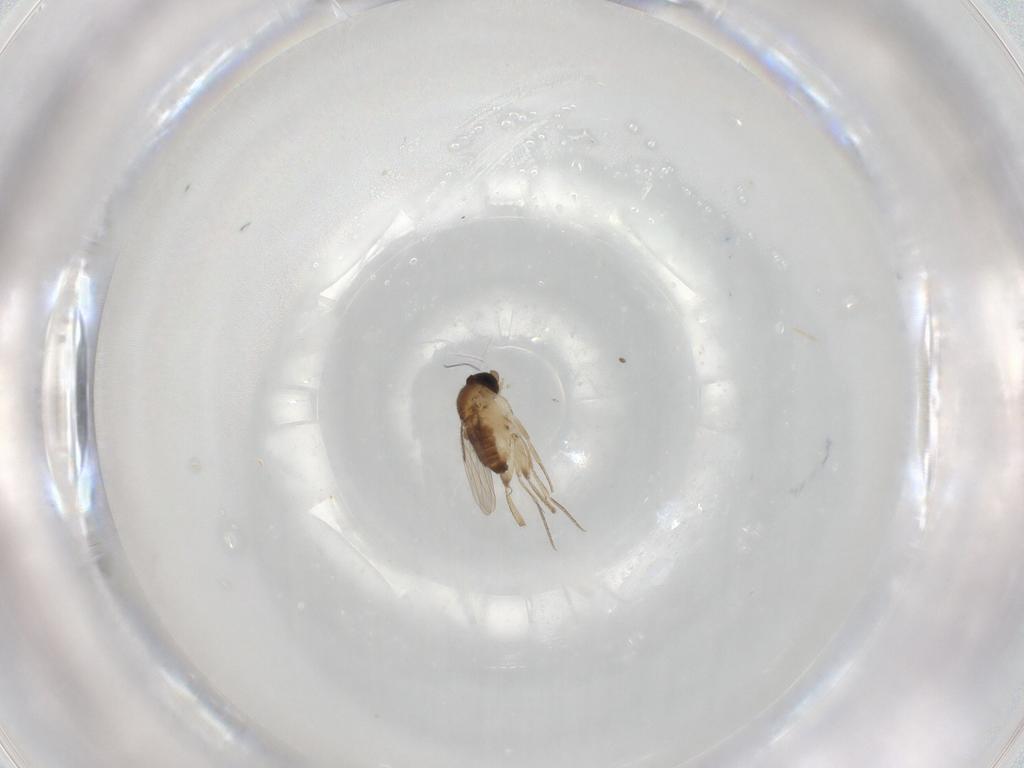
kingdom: Animalia
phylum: Arthropoda
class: Insecta
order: Diptera
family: Phoridae
